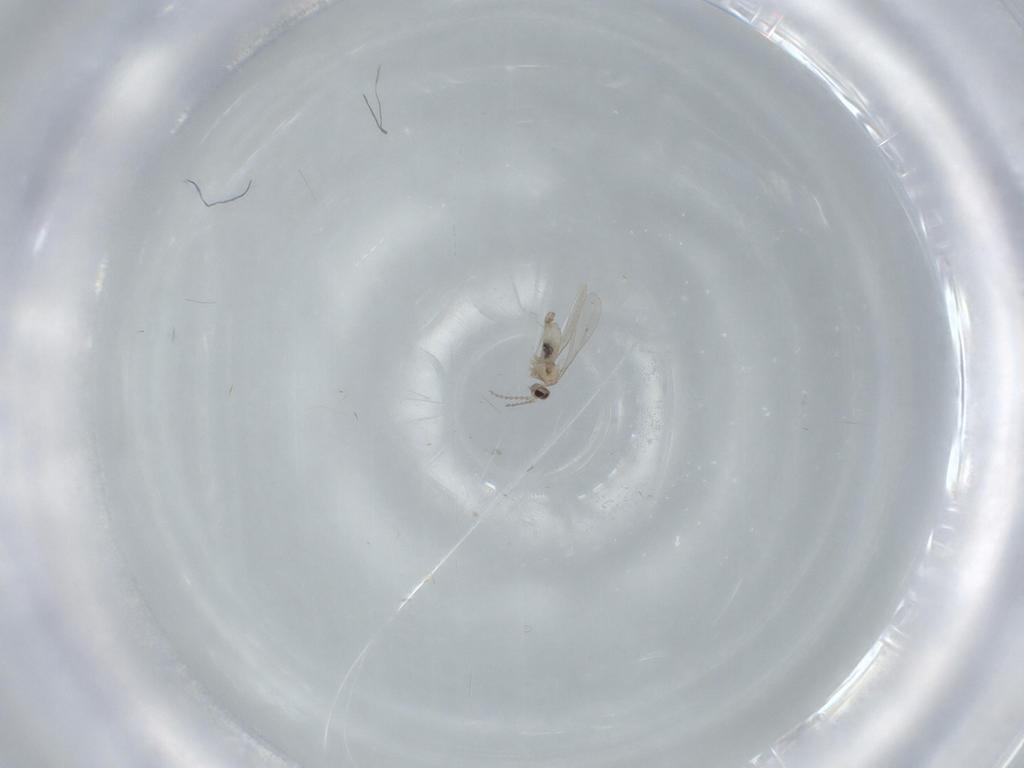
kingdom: Animalia
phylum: Arthropoda
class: Insecta
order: Diptera
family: Cecidomyiidae
